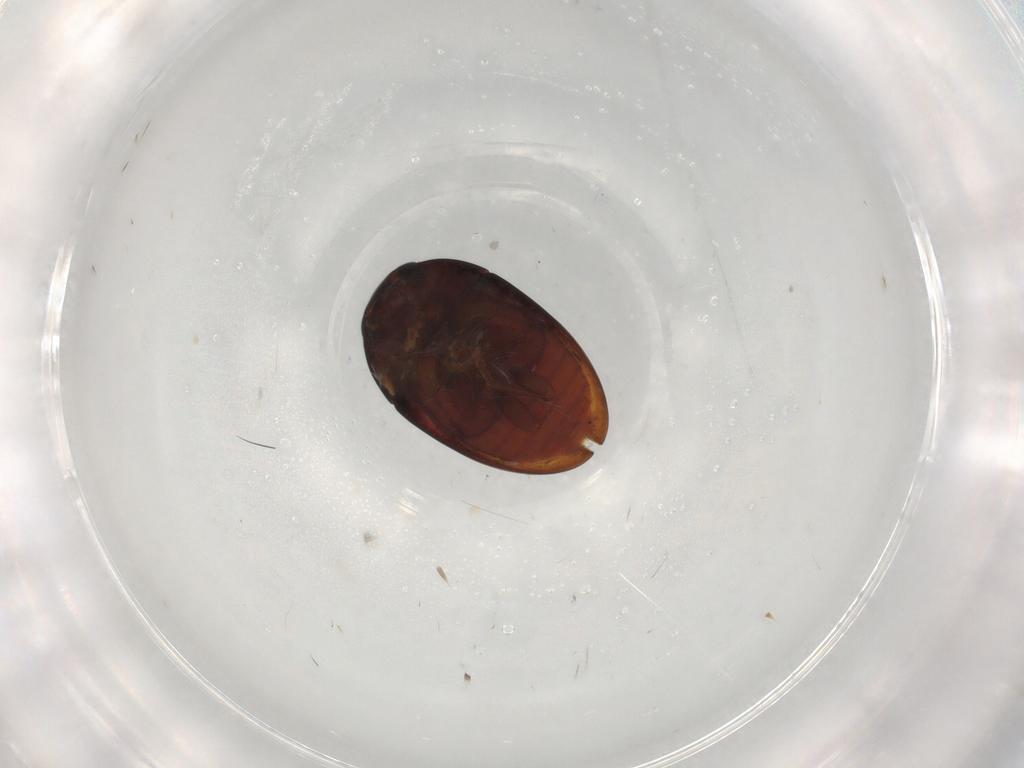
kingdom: Animalia
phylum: Arthropoda
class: Insecta
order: Coleoptera
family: Phalacridae
